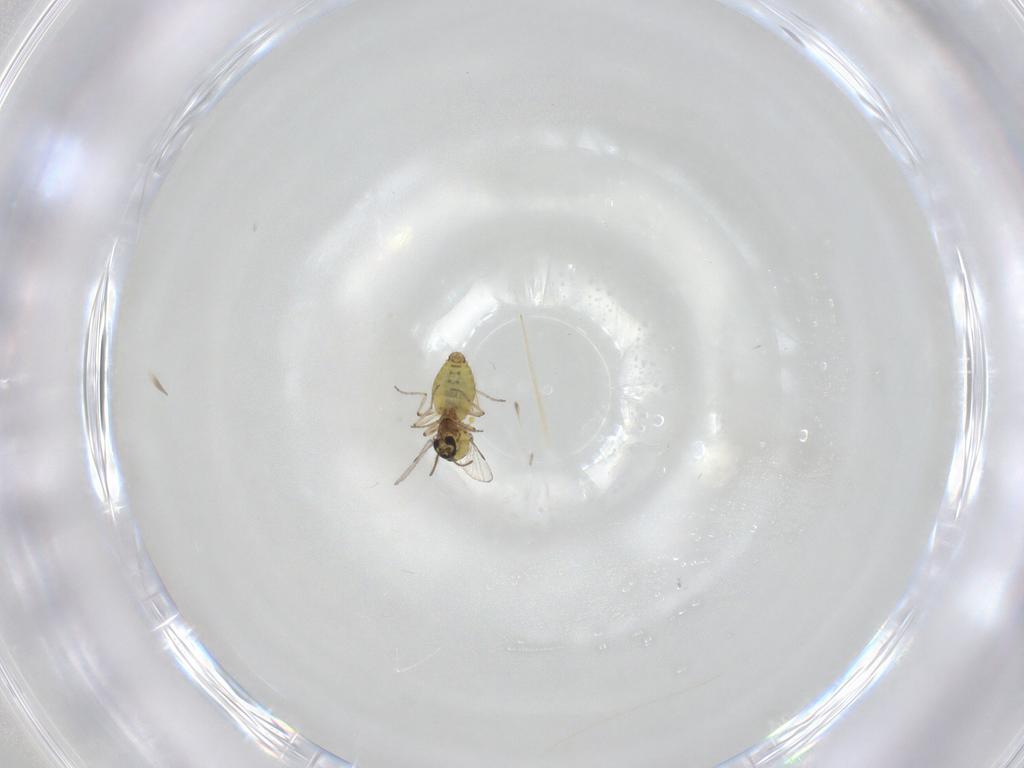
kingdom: Animalia
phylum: Arthropoda
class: Insecta
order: Diptera
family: Ceratopogonidae
